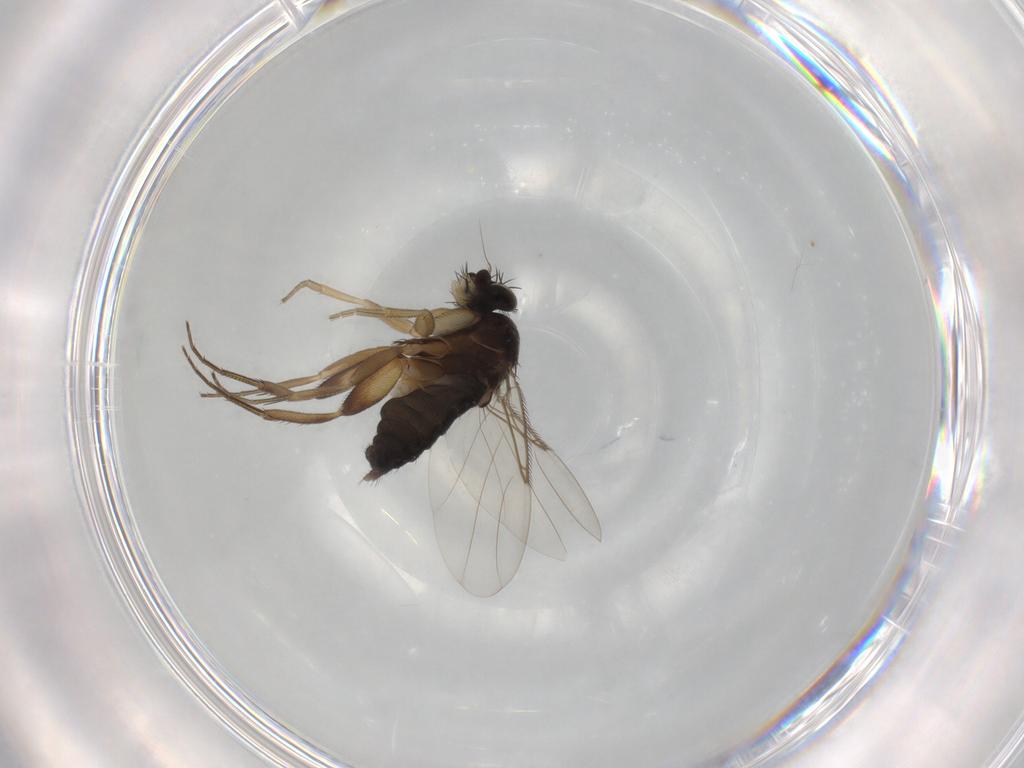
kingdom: Animalia
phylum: Arthropoda
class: Insecta
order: Diptera
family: Phoridae
